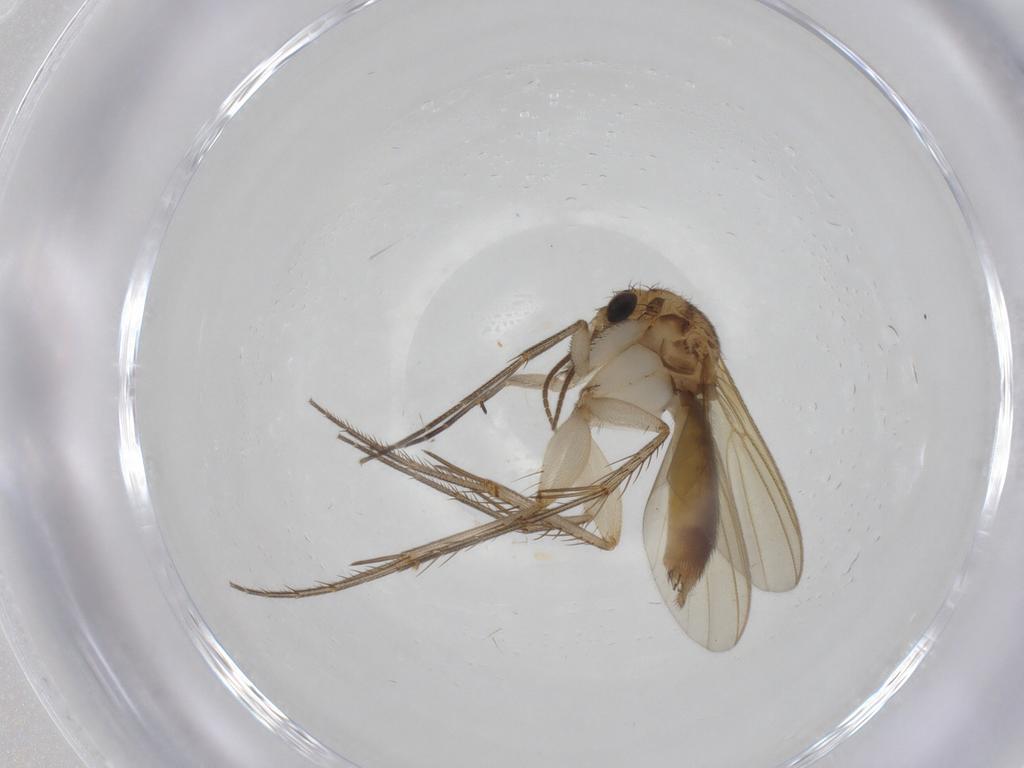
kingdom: Animalia
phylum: Arthropoda
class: Insecta
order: Diptera
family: Mycetophilidae
